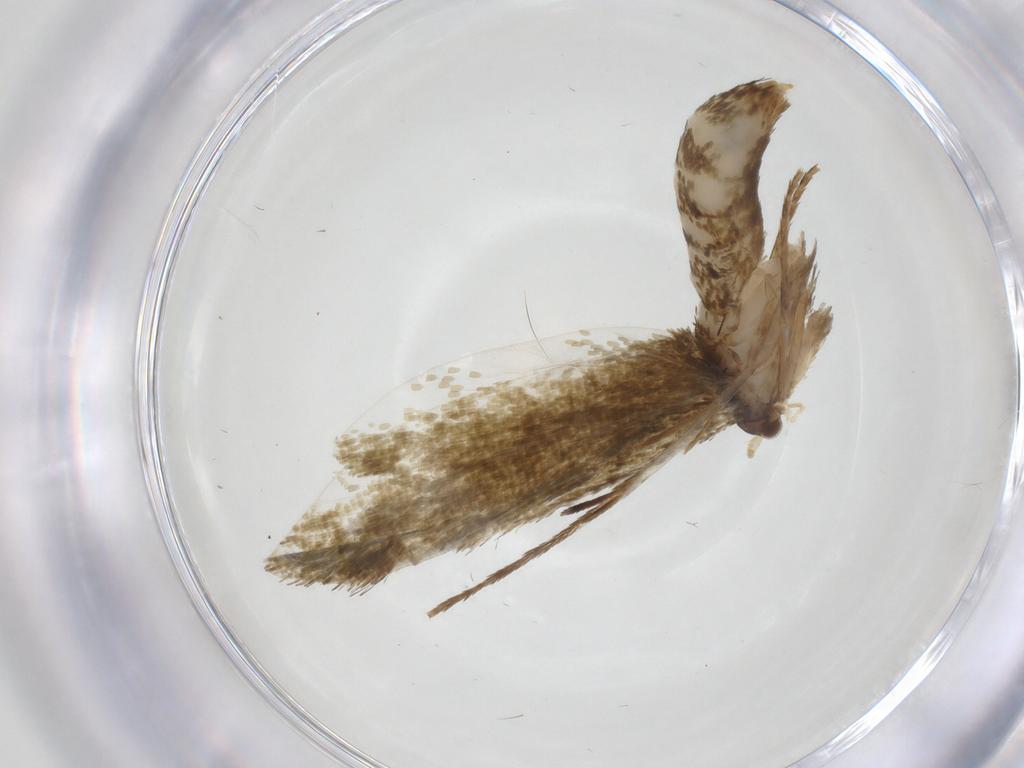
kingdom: Animalia
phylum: Arthropoda
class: Insecta
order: Lepidoptera
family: Tineidae
